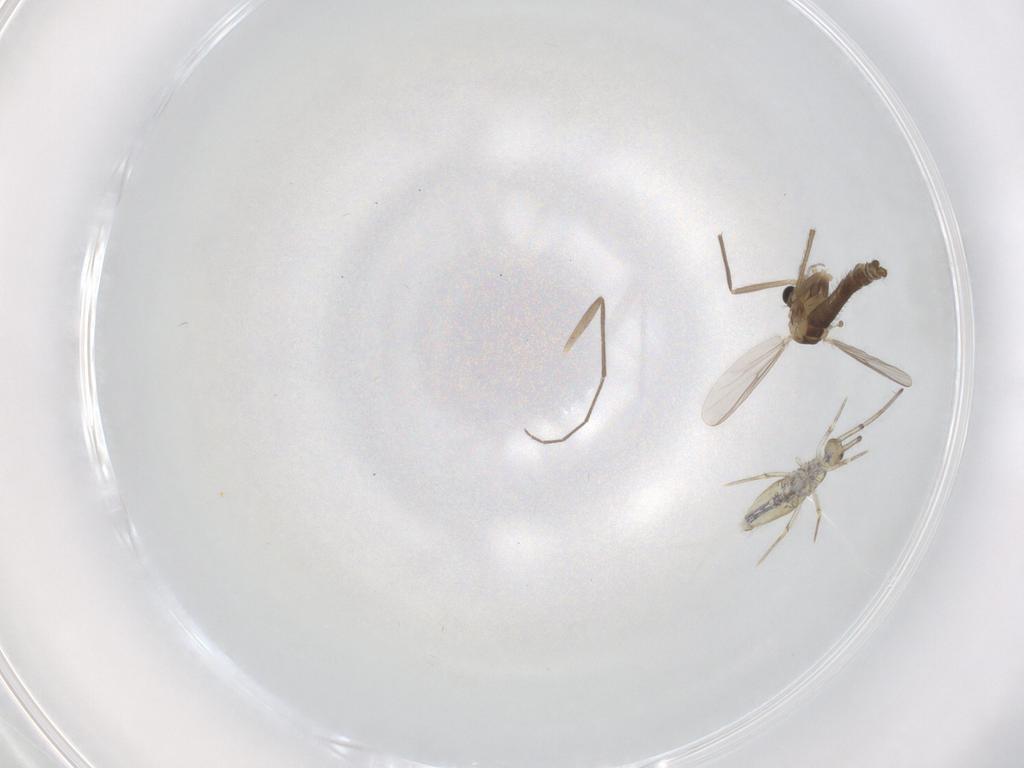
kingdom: Animalia
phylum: Arthropoda
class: Insecta
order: Diptera
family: Chironomidae
